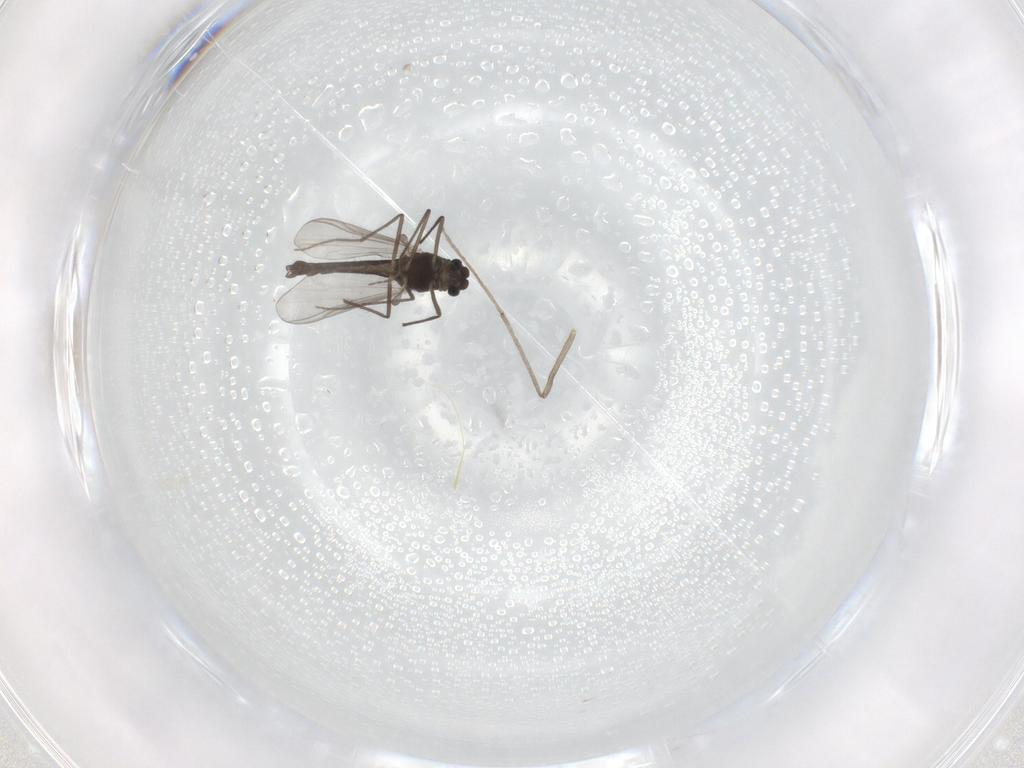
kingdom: Animalia
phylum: Arthropoda
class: Insecta
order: Diptera
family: Chironomidae
